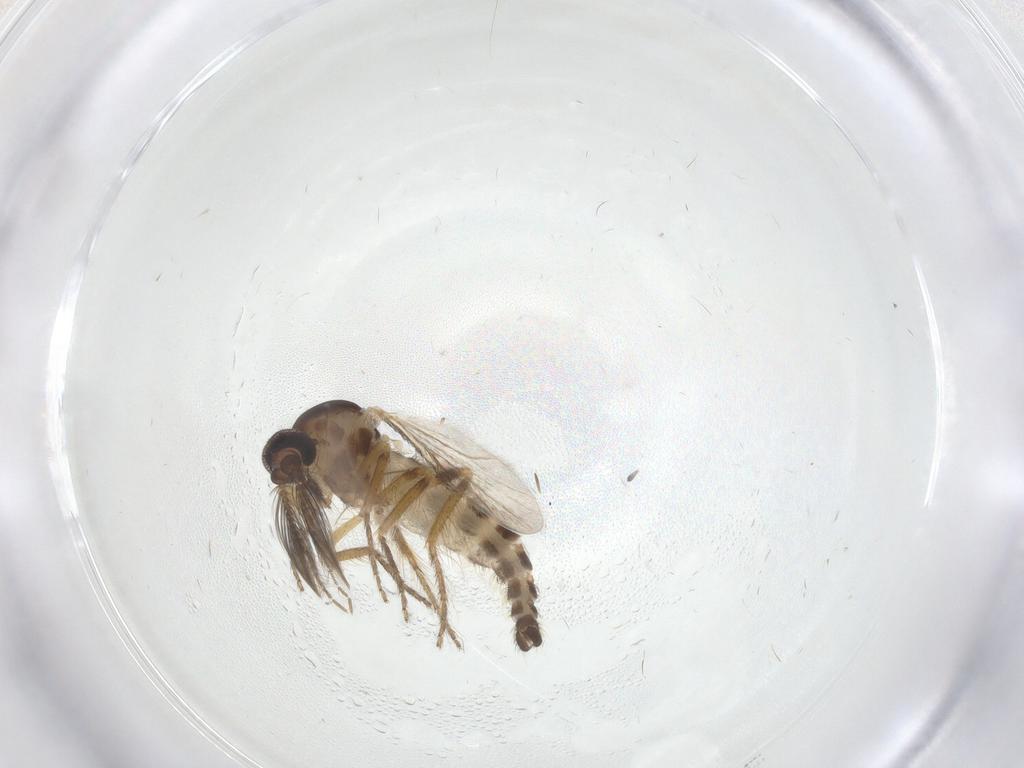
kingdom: Animalia
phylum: Arthropoda
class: Insecta
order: Diptera
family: Ceratopogonidae
